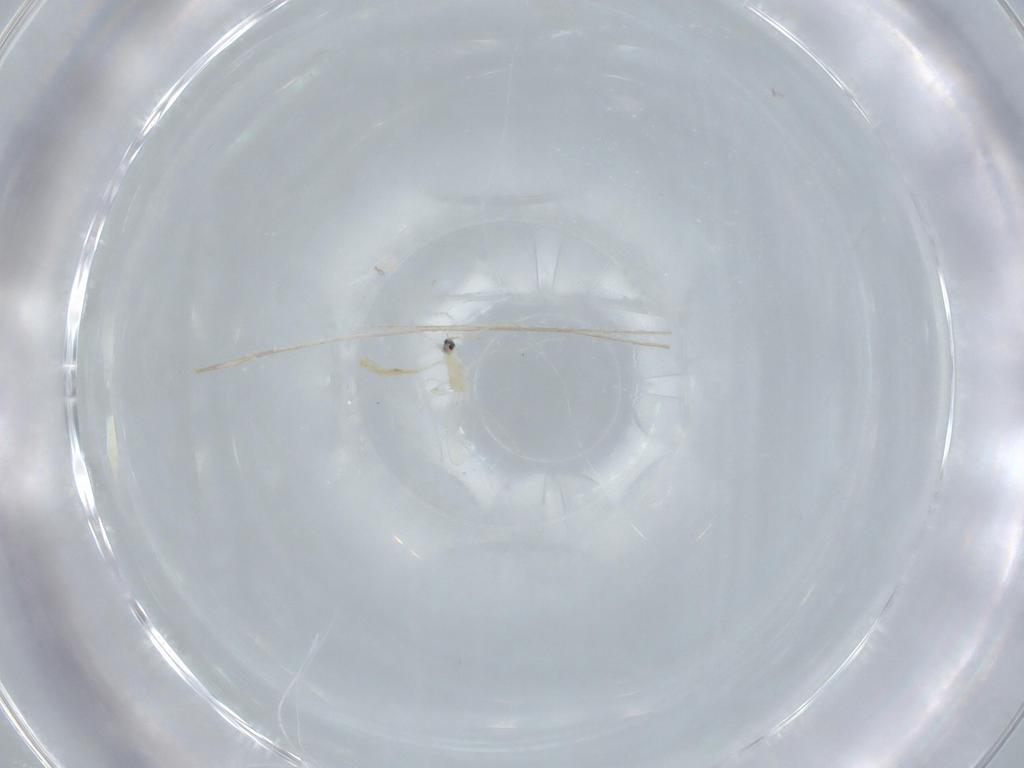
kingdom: Animalia
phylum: Arthropoda
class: Insecta
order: Diptera
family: Cecidomyiidae
